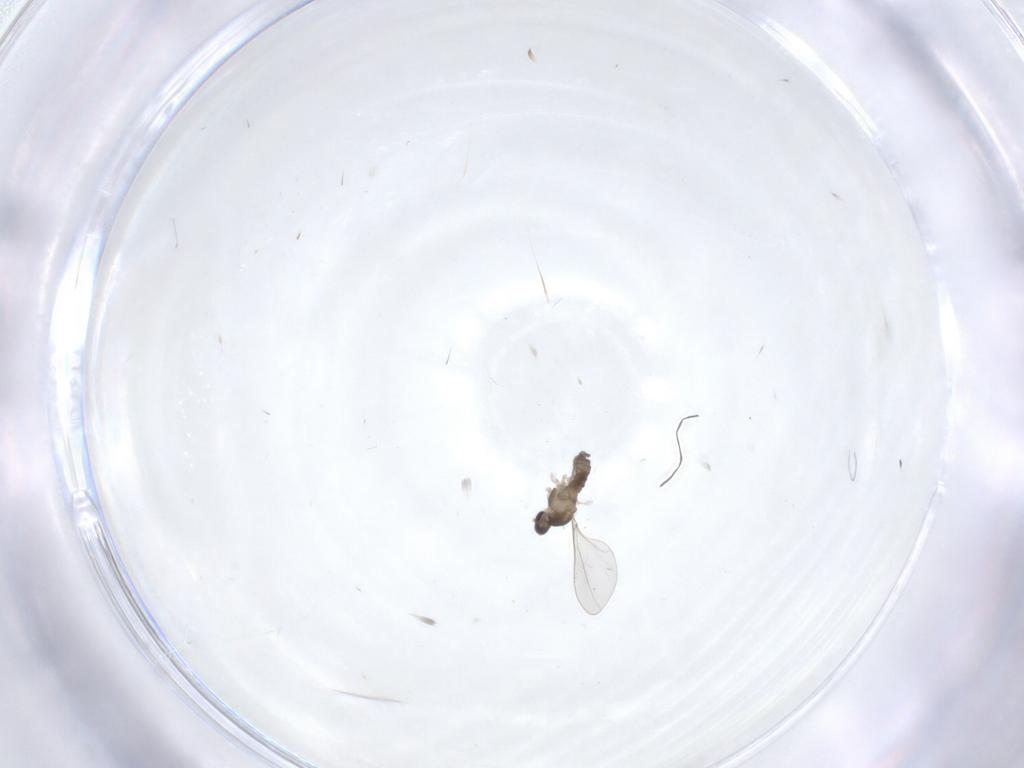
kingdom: Animalia
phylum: Arthropoda
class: Insecta
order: Diptera
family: Cecidomyiidae
